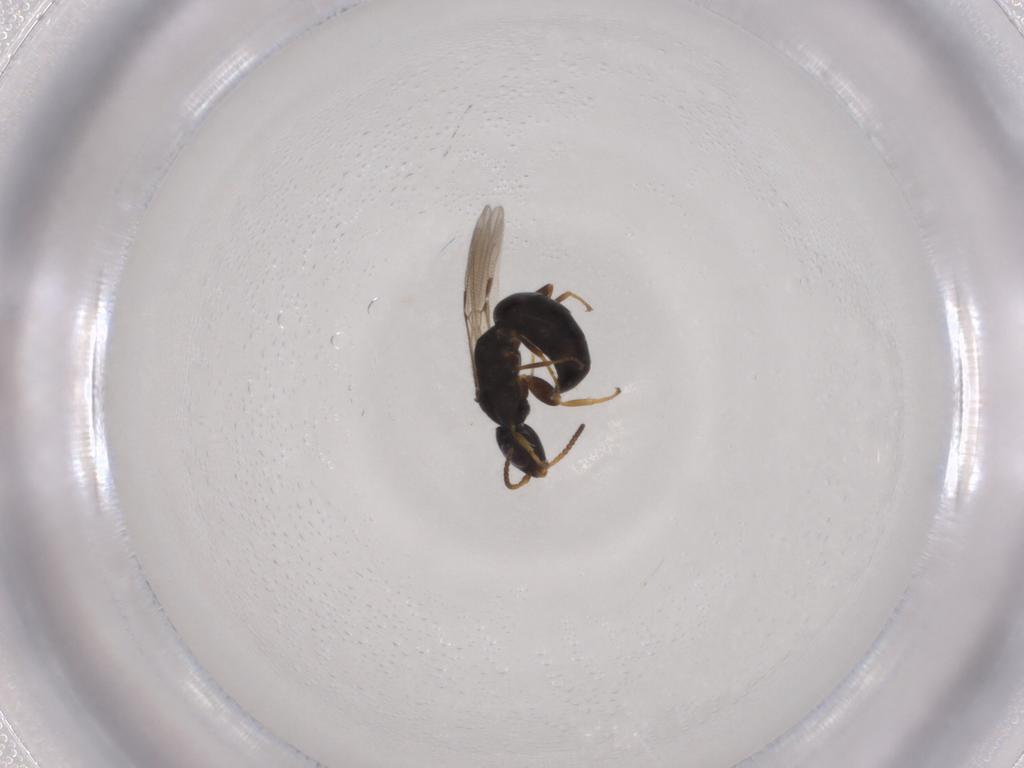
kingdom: Animalia
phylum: Arthropoda
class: Insecta
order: Hymenoptera
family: Bethylidae
